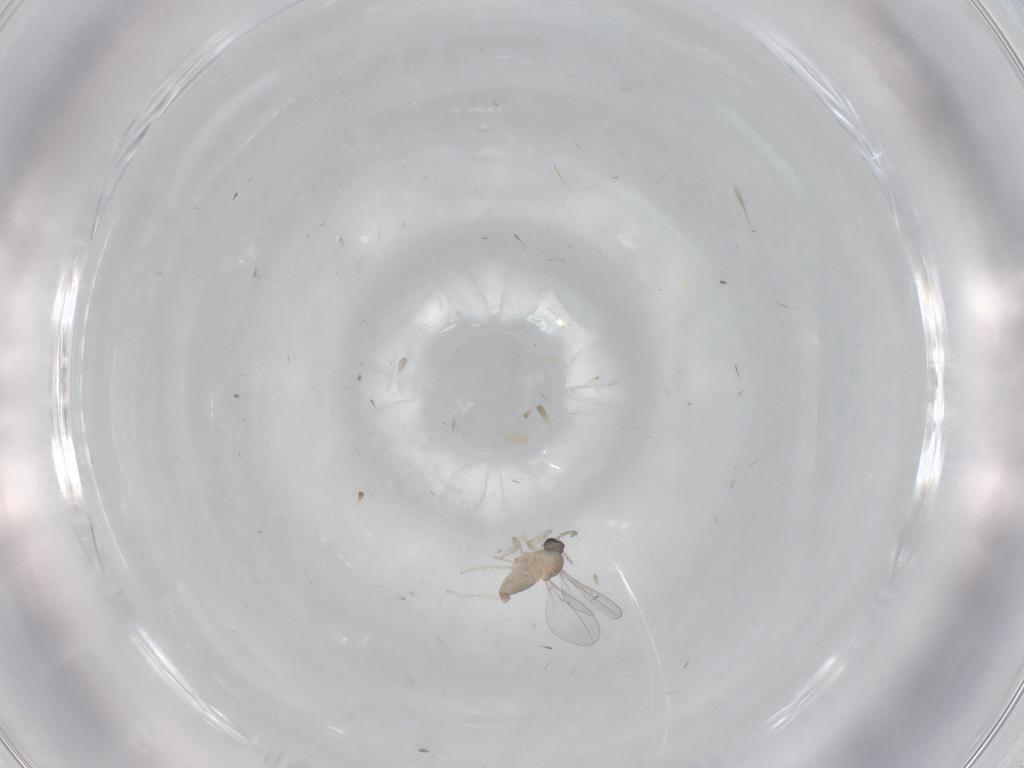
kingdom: Animalia
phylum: Arthropoda
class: Insecta
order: Diptera
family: Cecidomyiidae
